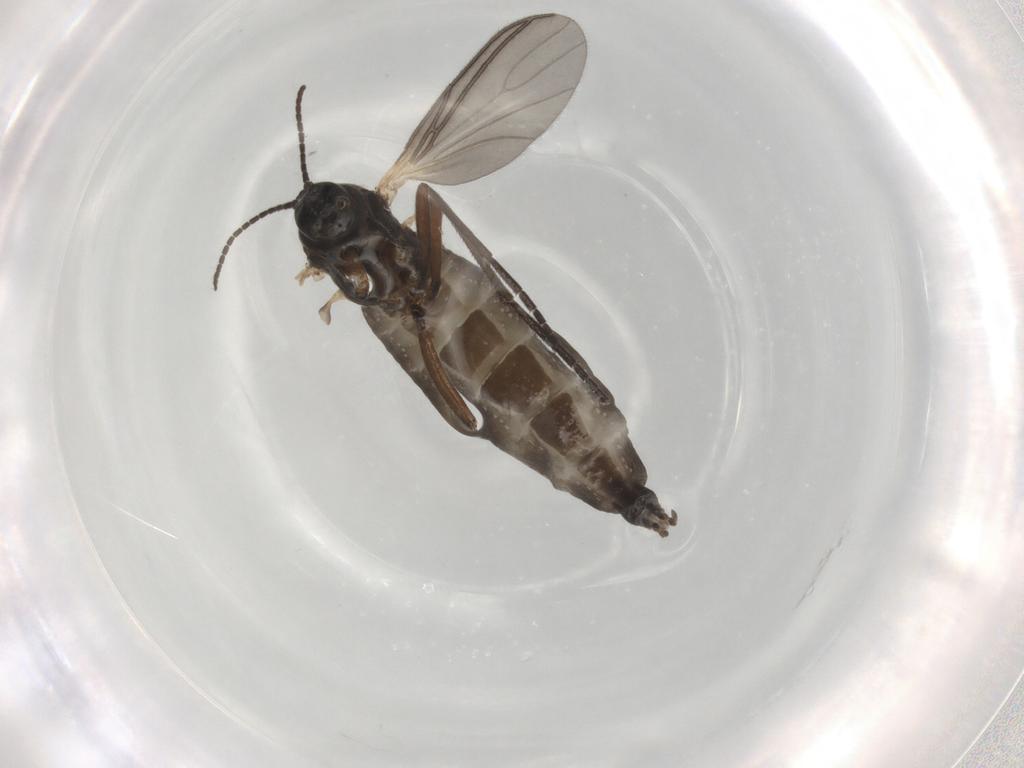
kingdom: Animalia
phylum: Arthropoda
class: Insecta
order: Diptera
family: Sciaridae
